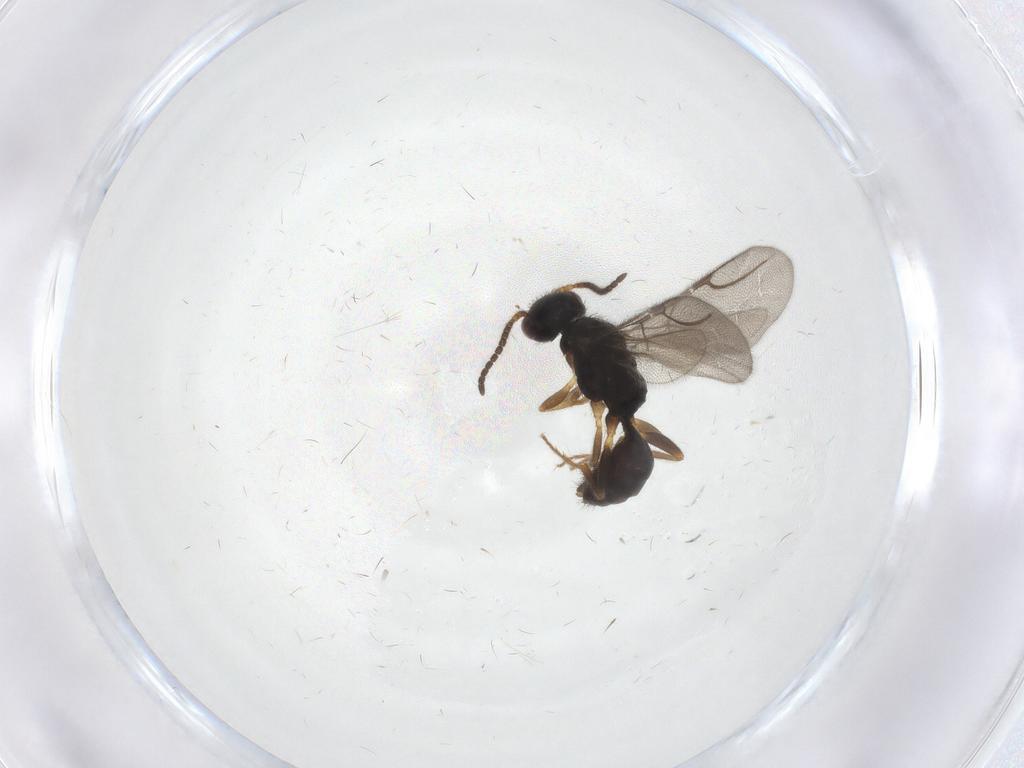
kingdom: Animalia
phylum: Arthropoda
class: Insecta
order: Hymenoptera
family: Bethylidae
